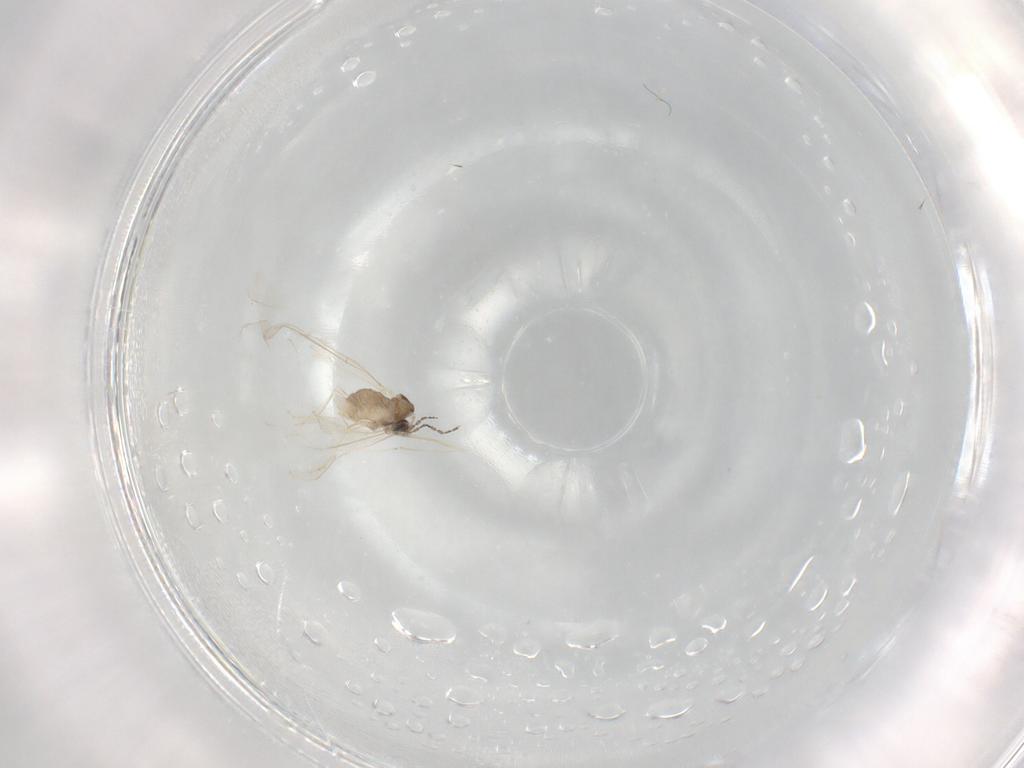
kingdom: Animalia
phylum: Arthropoda
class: Insecta
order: Diptera
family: Cecidomyiidae
